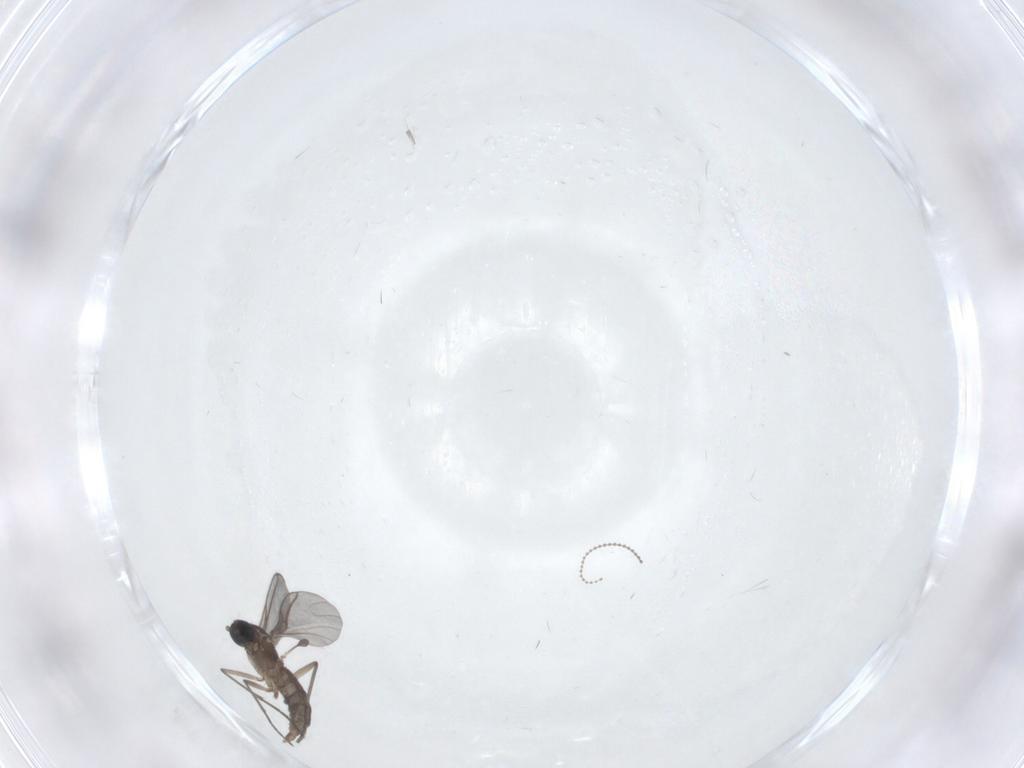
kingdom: Animalia
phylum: Arthropoda
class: Insecta
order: Diptera
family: Cecidomyiidae
